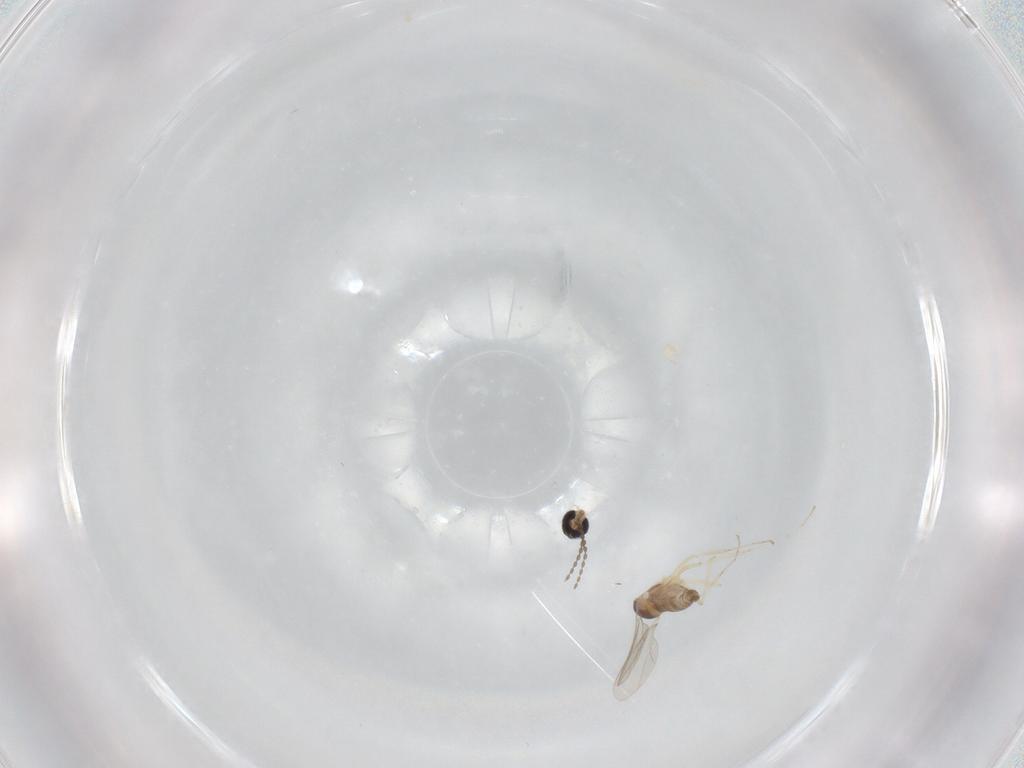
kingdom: Animalia
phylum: Arthropoda
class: Insecta
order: Diptera
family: Cecidomyiidae
